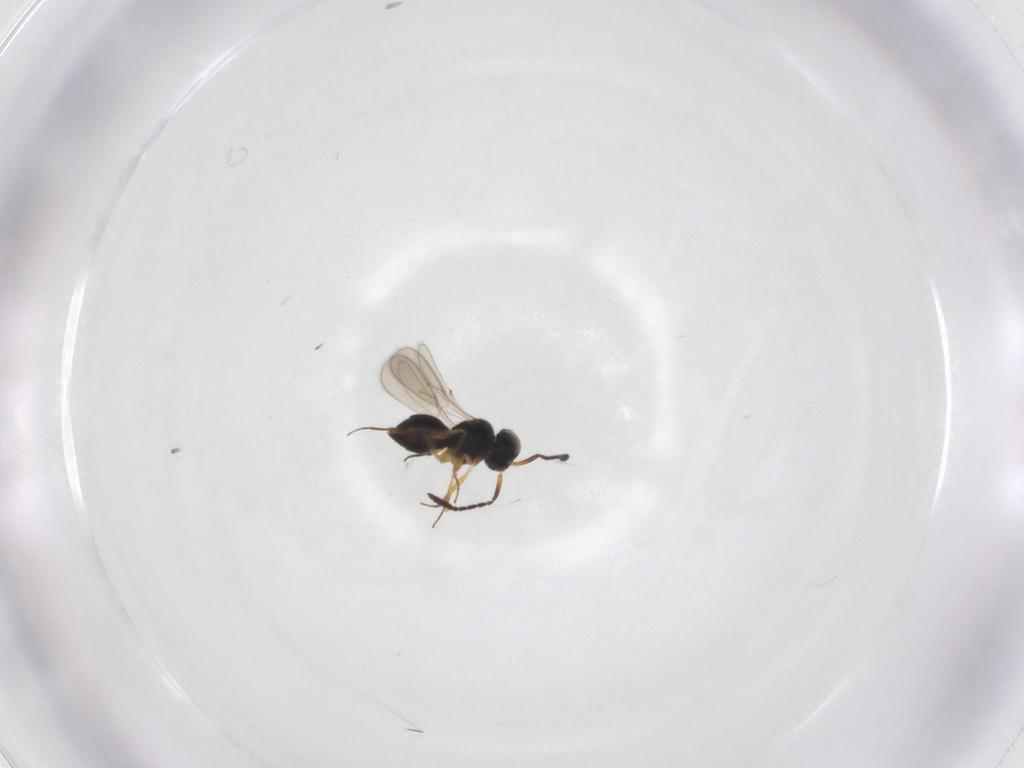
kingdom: Animalia
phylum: Arthropoda
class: Insecta
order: Hymenoptera
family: Scelionidae
